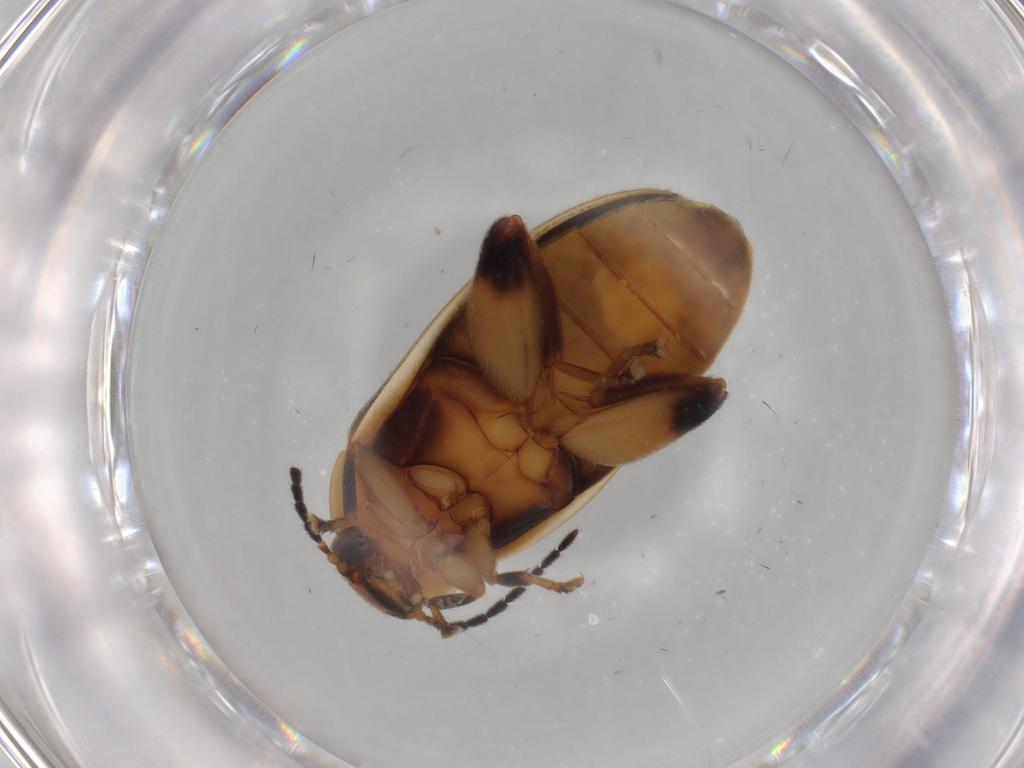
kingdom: Animalia
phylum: Arthropoda
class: Insecta
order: Coleoptera
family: Scirtidae
